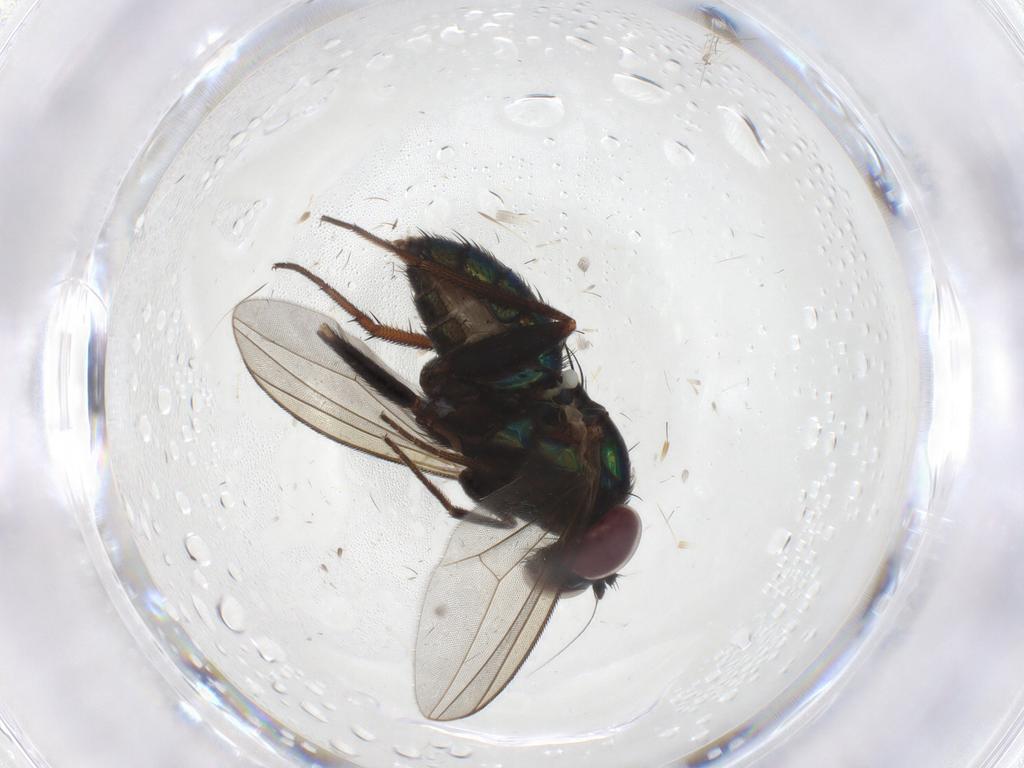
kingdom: Animalia
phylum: Arthropoda
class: Insecta
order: Diptera
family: Dolichopodidae
